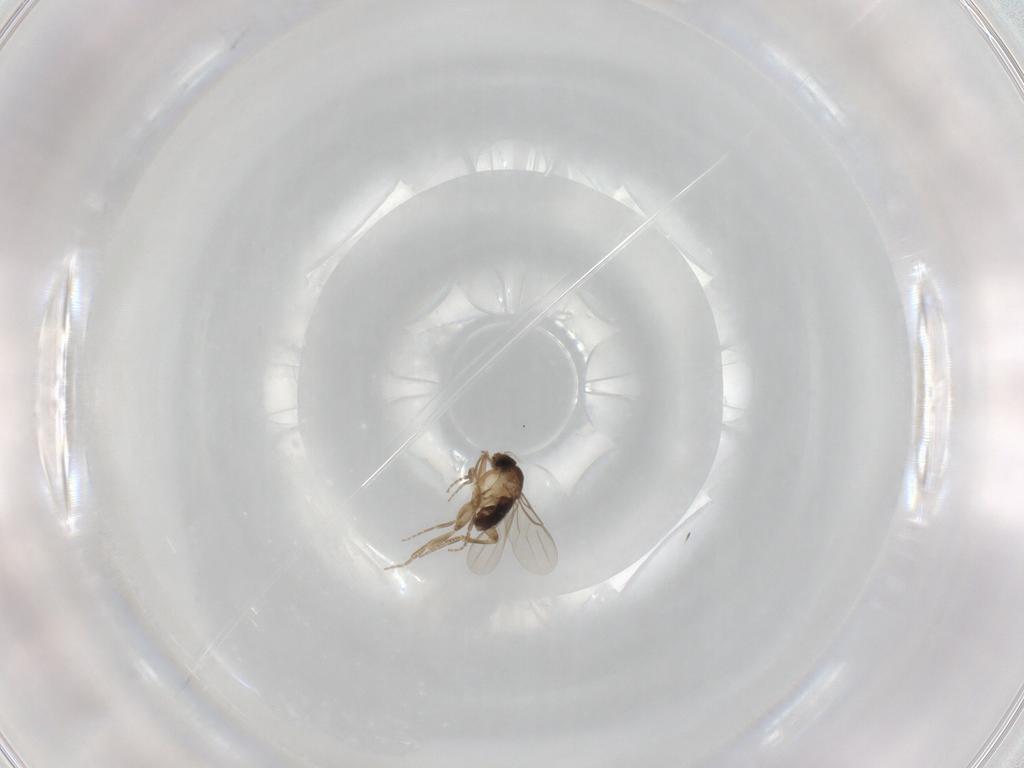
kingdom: Animalia
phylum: Arthropoda
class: Insecta
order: Diptera
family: Phoridae
